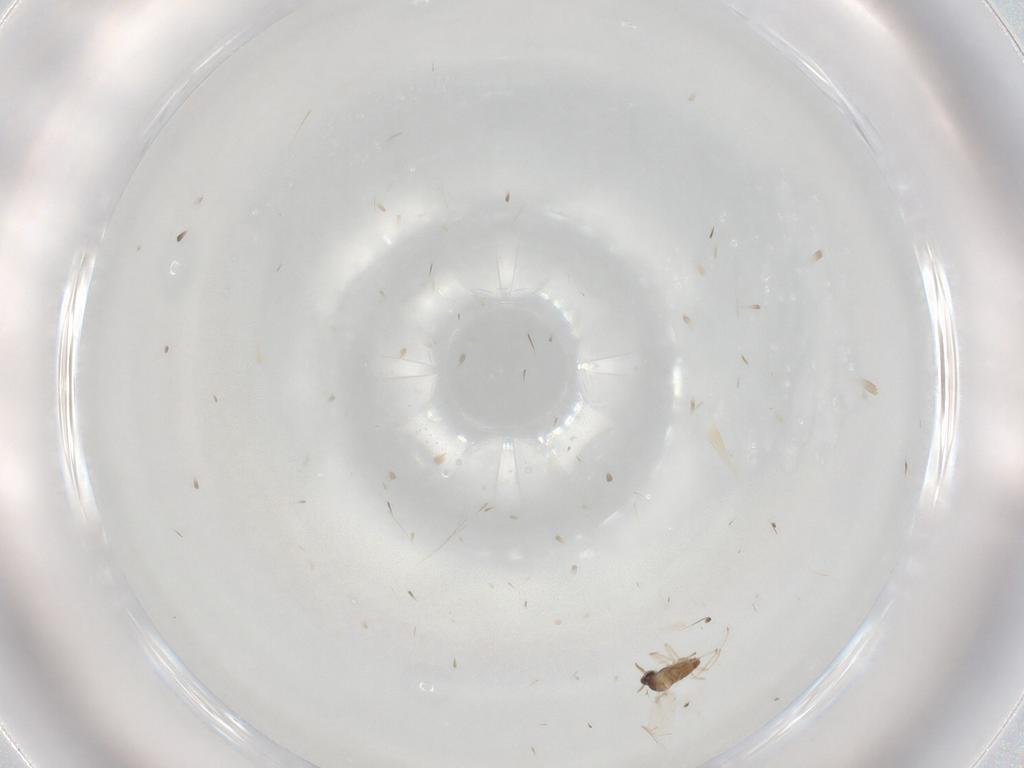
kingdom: Animalia
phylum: Arthropoda
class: Insecta
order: Diptera
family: Cecidomyiidae
